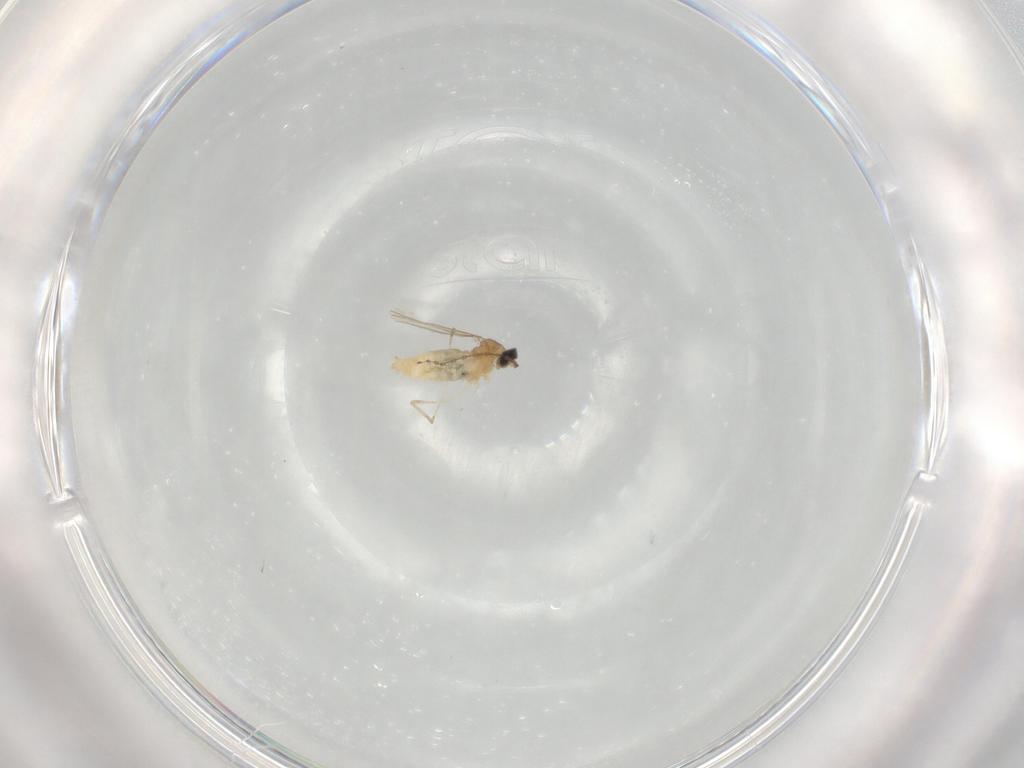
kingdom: Animalia
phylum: Arthropoda
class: Insecta
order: Diptera
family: Cecidomyiidae
